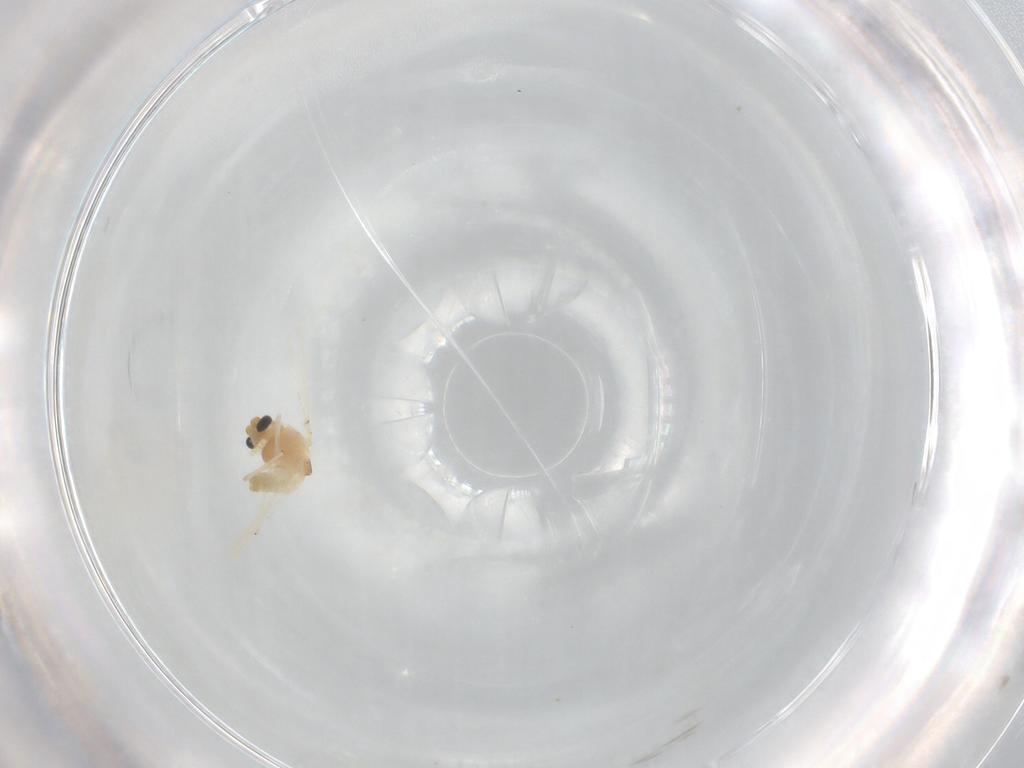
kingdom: Animalia
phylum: Arthropoda
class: Insecta
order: Diptera
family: Chironomidae
